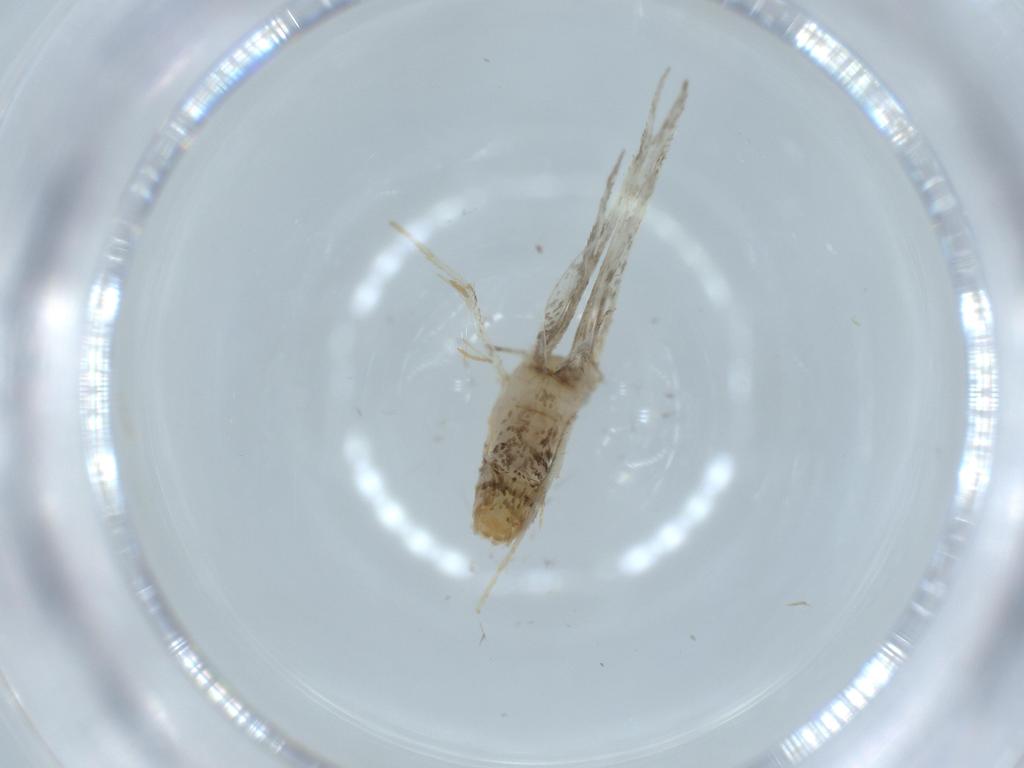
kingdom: Animalia
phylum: Arthropoda
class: Insecta
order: Lepidoptera
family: Tineidae
